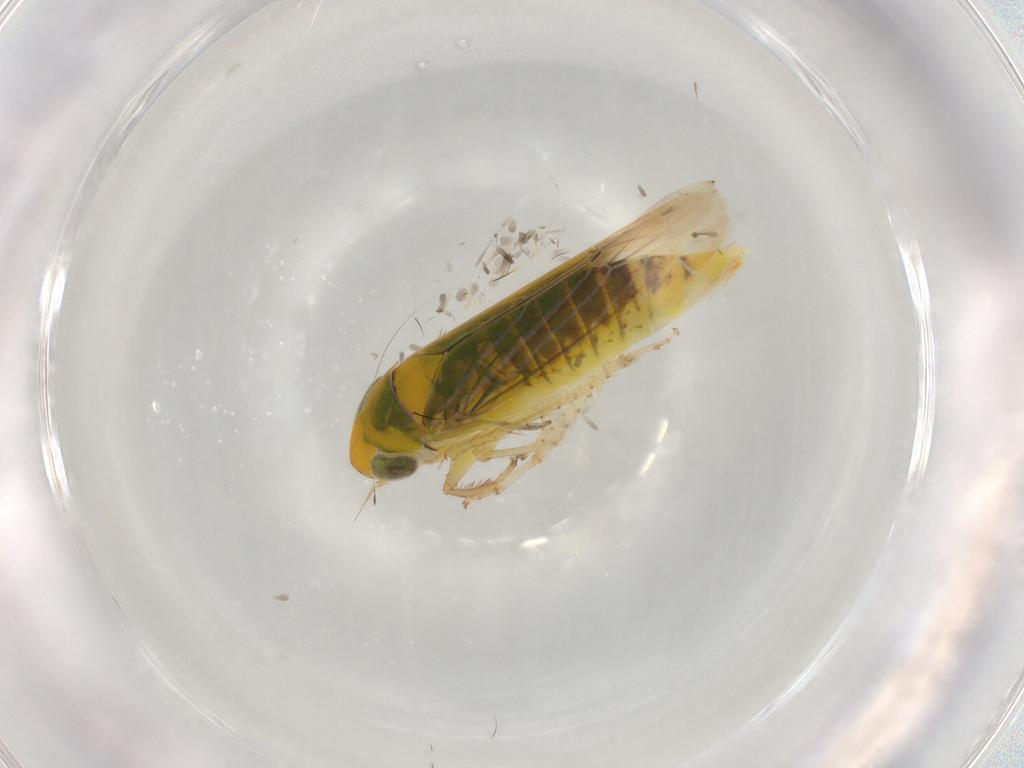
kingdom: Animalia
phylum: Arthropoda
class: Insecta
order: Hemiptera
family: Cicadellidae
